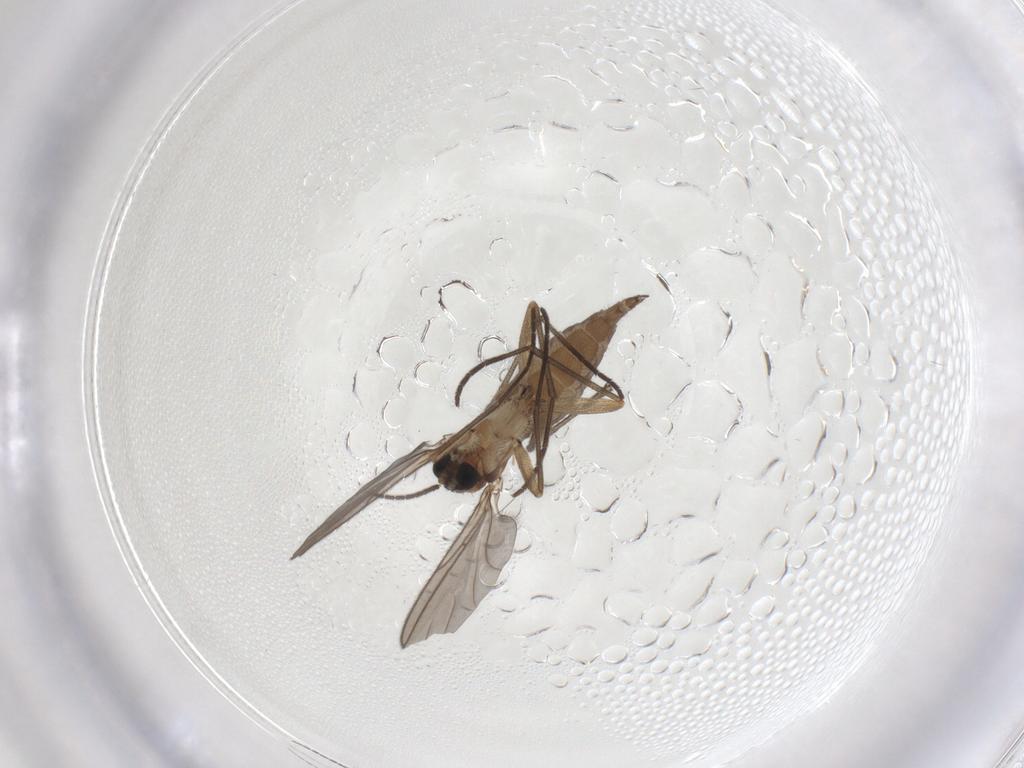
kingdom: Animalia
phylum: Arthropoda
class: Insecta
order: Diptera
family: Sciaridae
